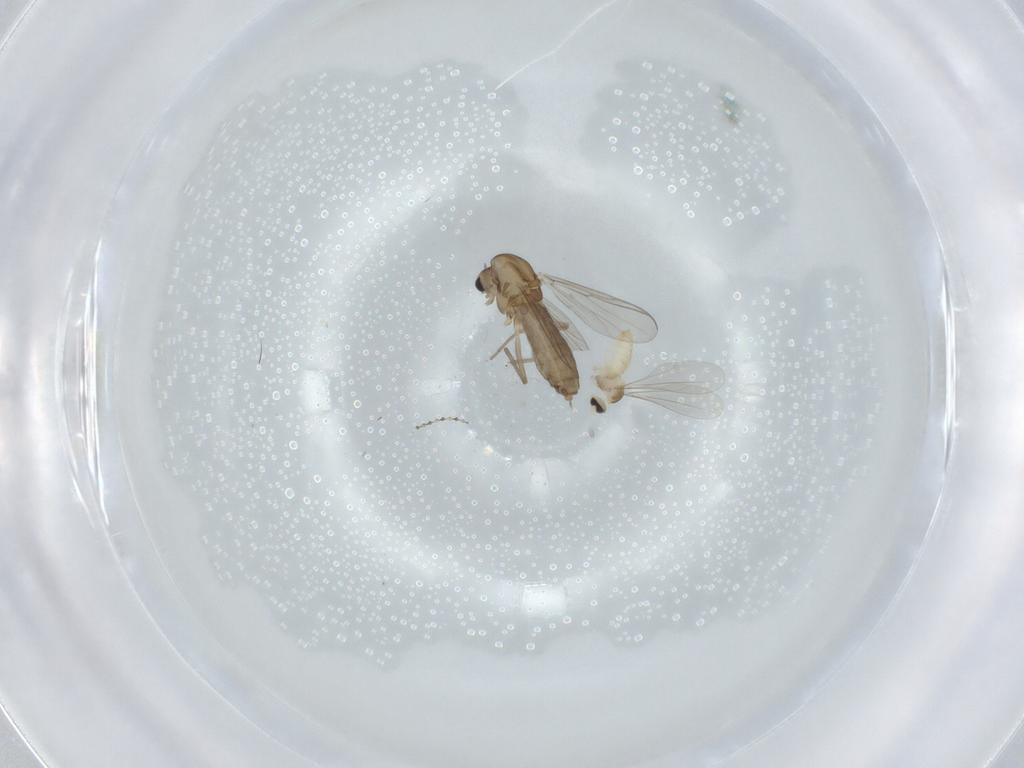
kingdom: Animalia
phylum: Arthropoda
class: Insecta
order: Diptera
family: Chironomidae
